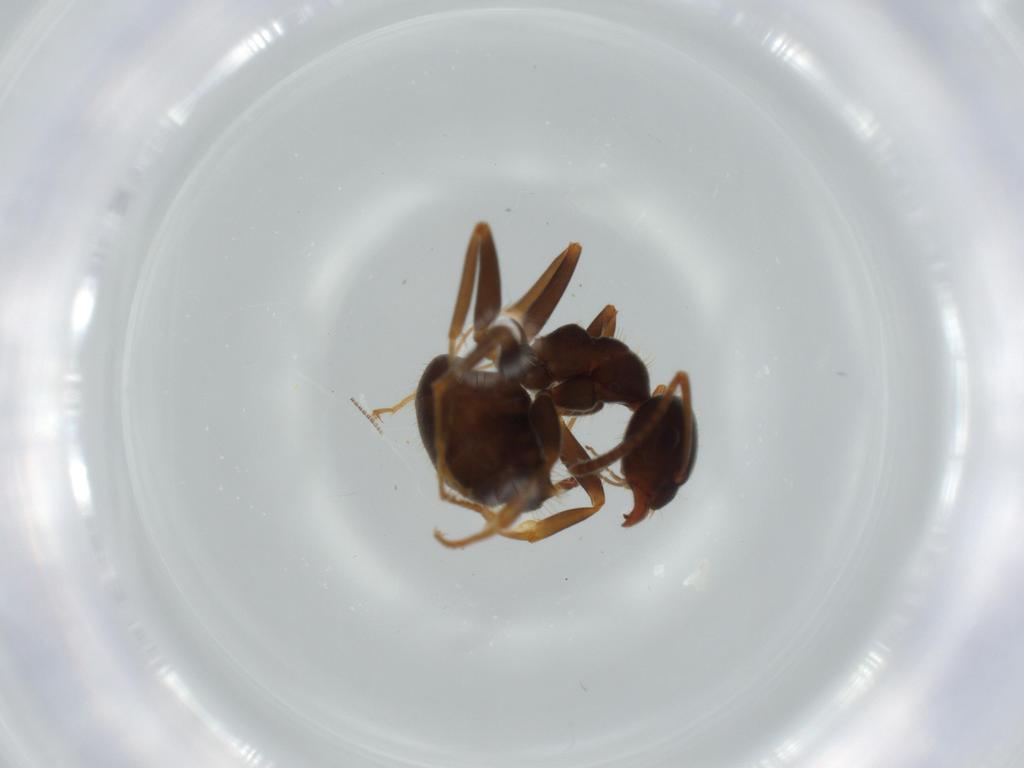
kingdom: Animalia
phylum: Arthropoda
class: Insecta
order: Hymenoptera
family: Formicidae
